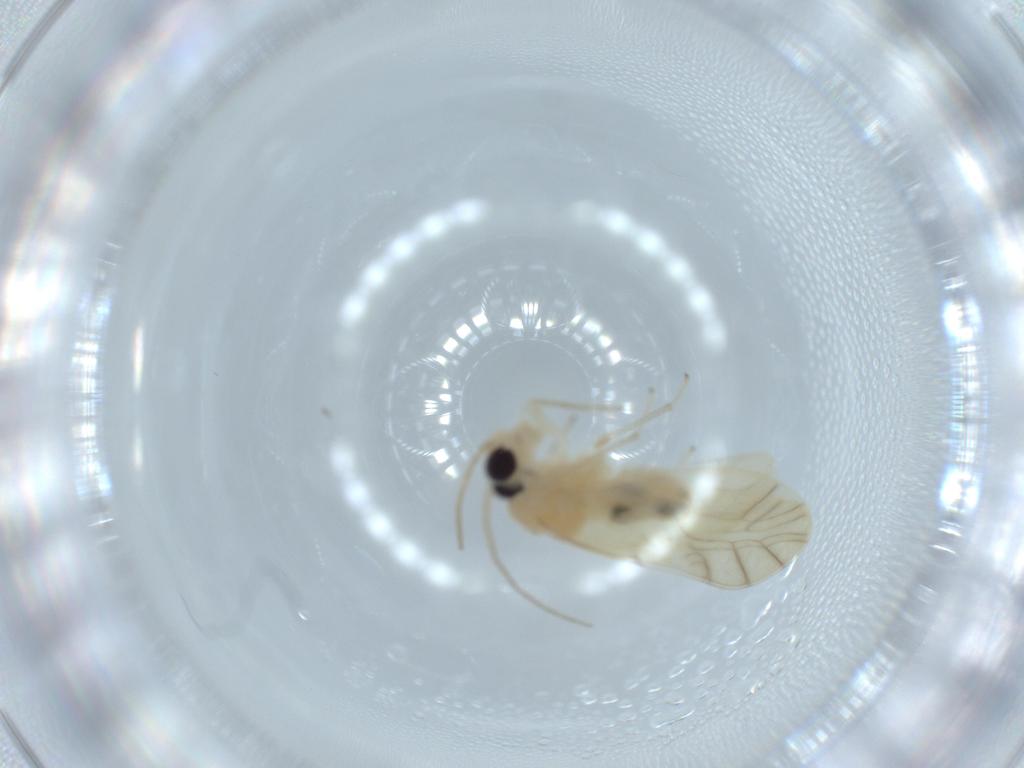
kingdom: Animalia
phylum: Arthropoda
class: Insecta
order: Psocodea
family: Caeciliusidae
